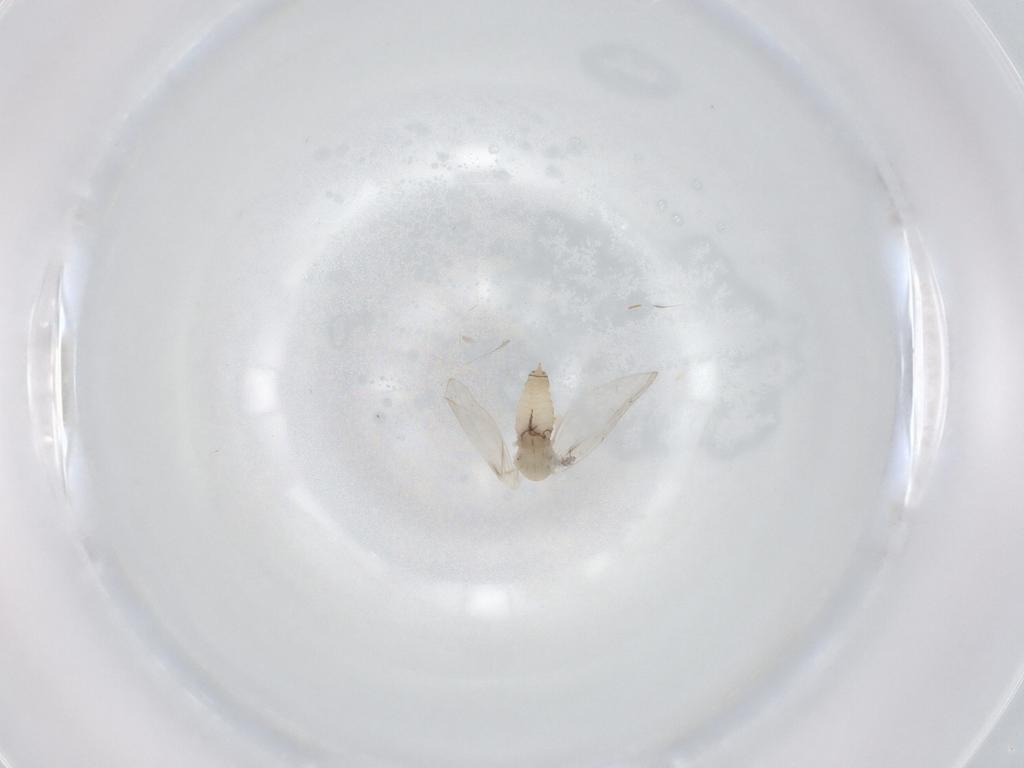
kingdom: Animalia
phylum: Arthropoda
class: Insecta
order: Diptera
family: Psychodidae
